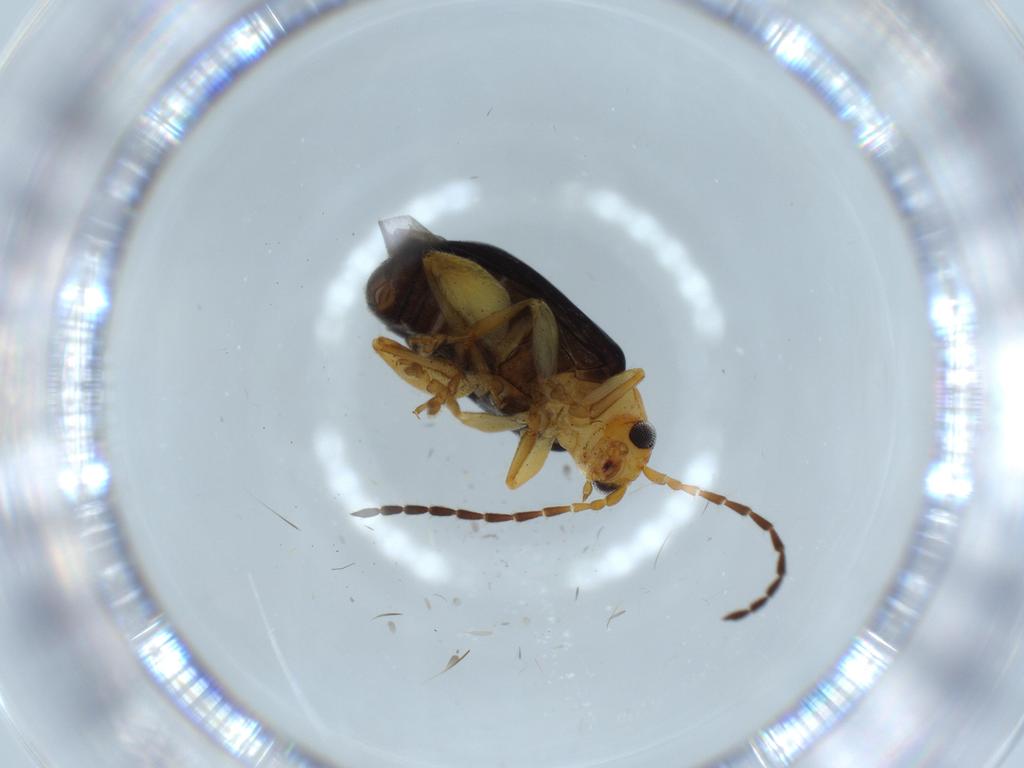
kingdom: Animalia
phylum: Arthropoda
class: Insecta
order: Coleoptera
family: Chrysomelidae
